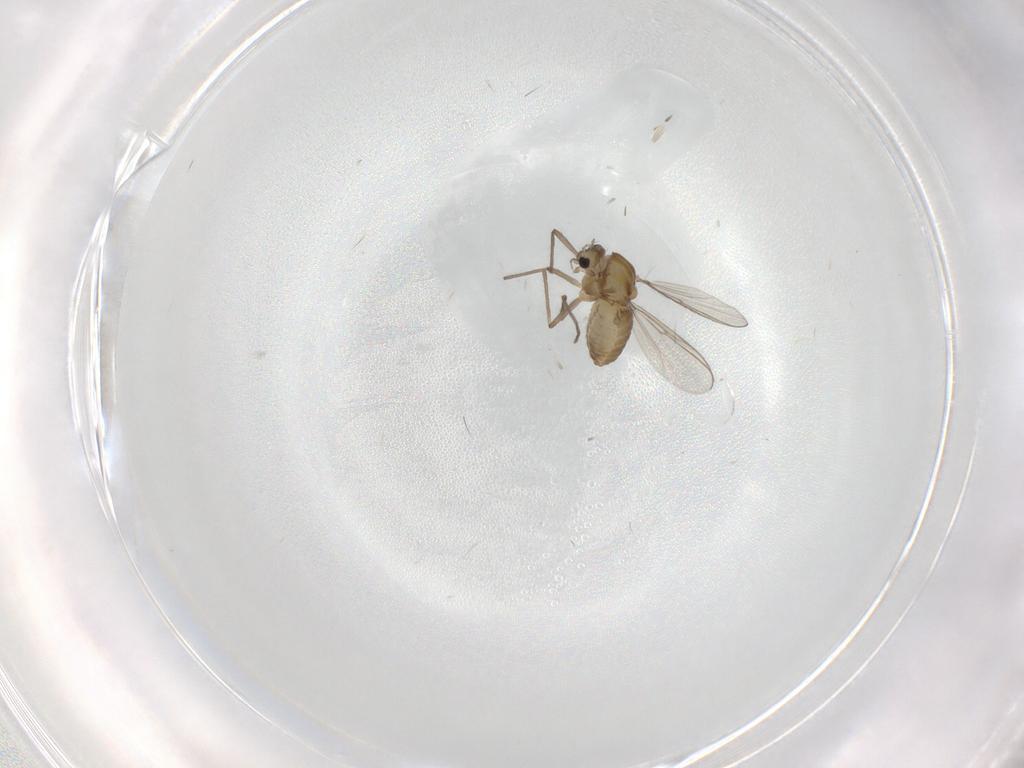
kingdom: Animalia
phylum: Arthropoda
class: Insecta
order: Diptera
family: Chironomidae
